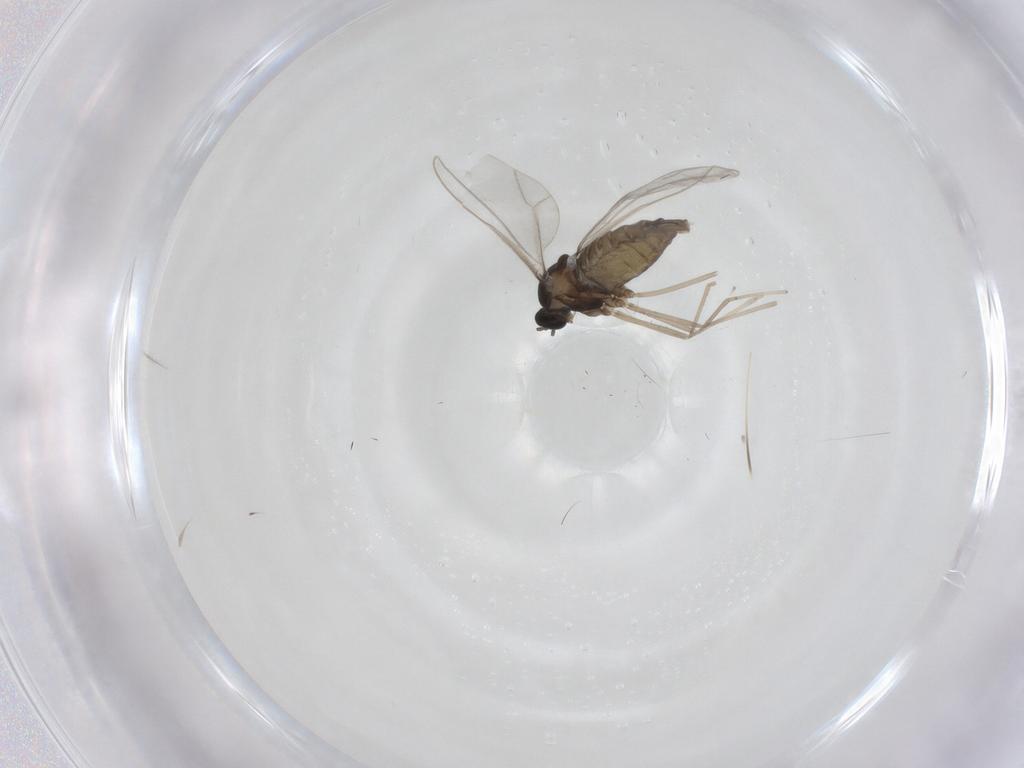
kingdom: Animalia
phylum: Arthropoda
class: Insecta
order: Diptera
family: Cecidomyiidae
